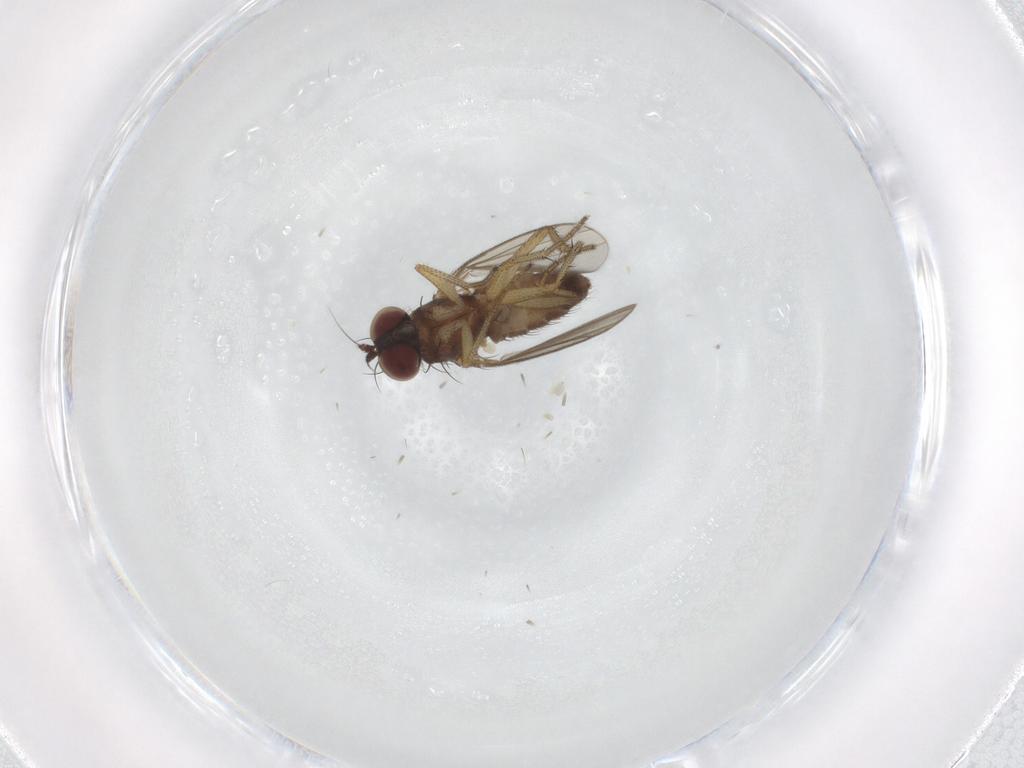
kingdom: Animalia
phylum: Arthropoda
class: Insecta
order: Diptera
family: Dolichopodidae
